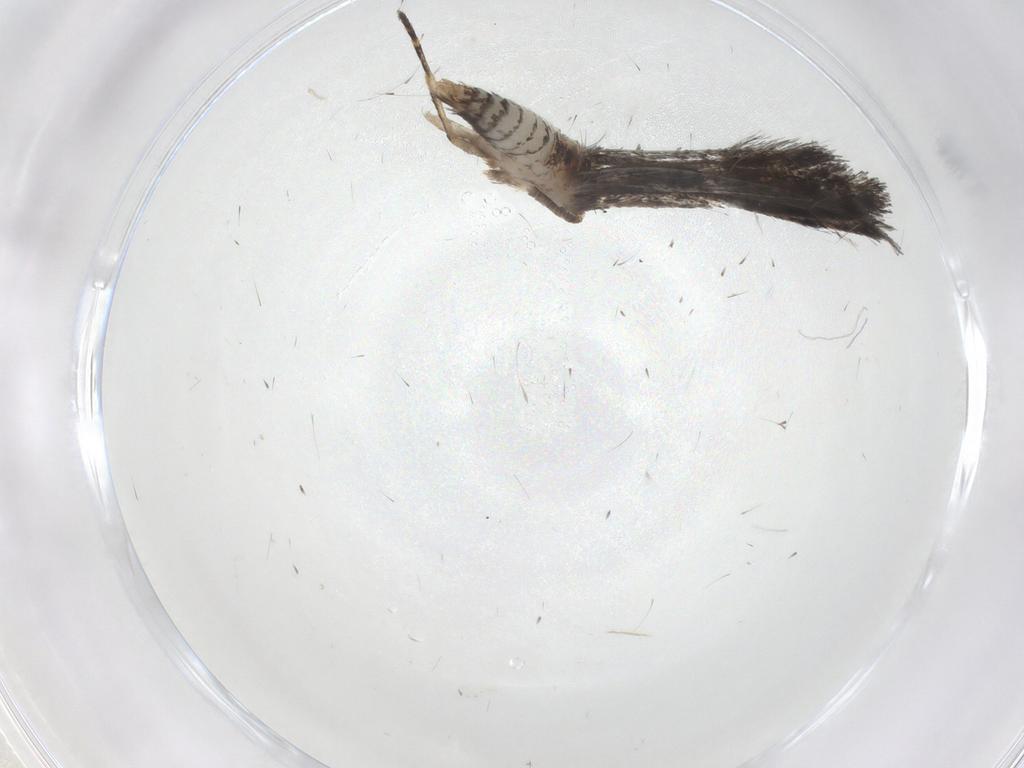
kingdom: Animalia
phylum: Arthropoda
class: Insecta
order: Lepidoptera
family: Tineidae
